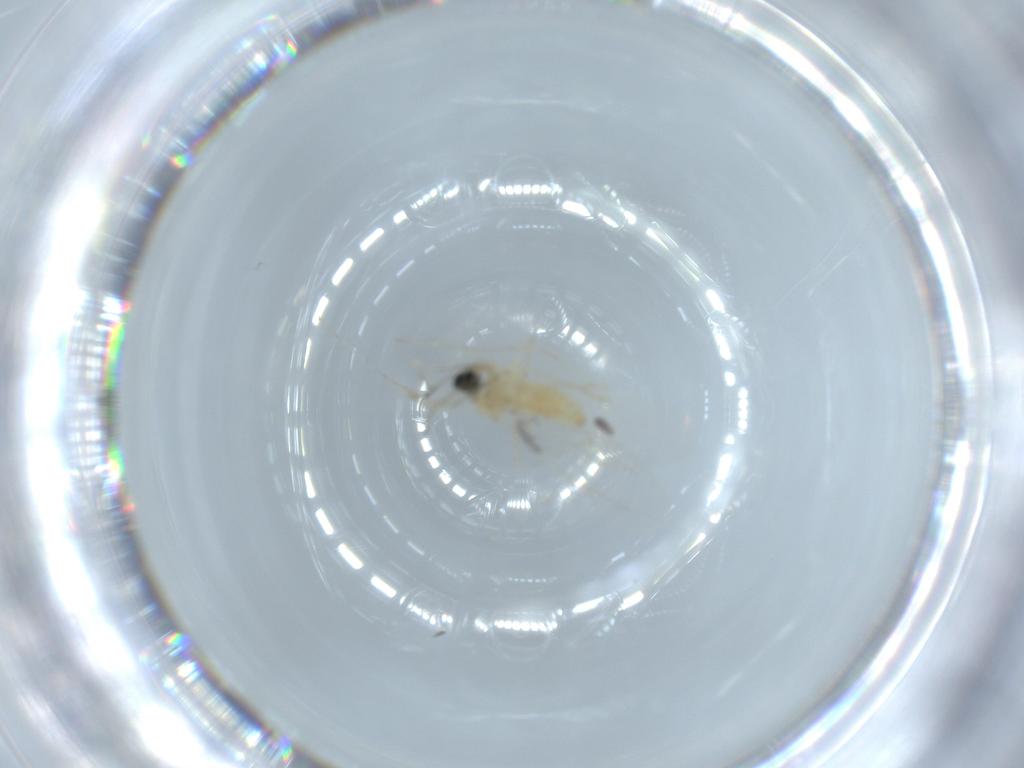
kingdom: Animalia
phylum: Arthropoda
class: Insecta
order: Diptera
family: Cecidomyiidae
